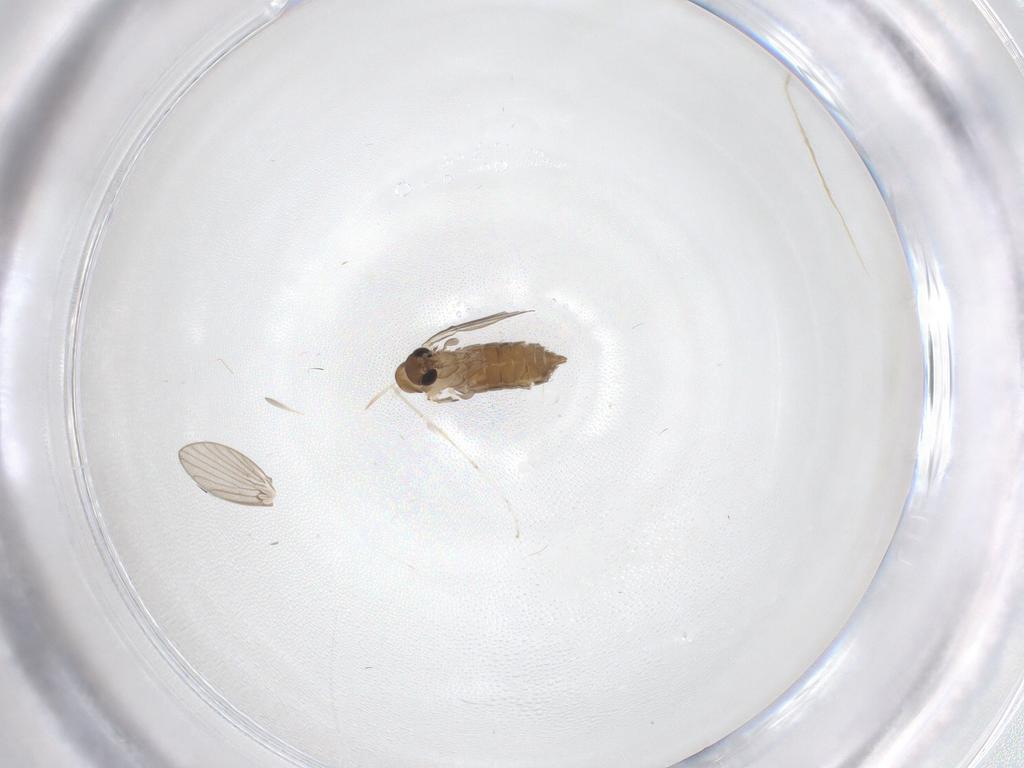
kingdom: Animalia
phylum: Arthropoda
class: Insecta
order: Diptera
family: Cecidomyiidae
